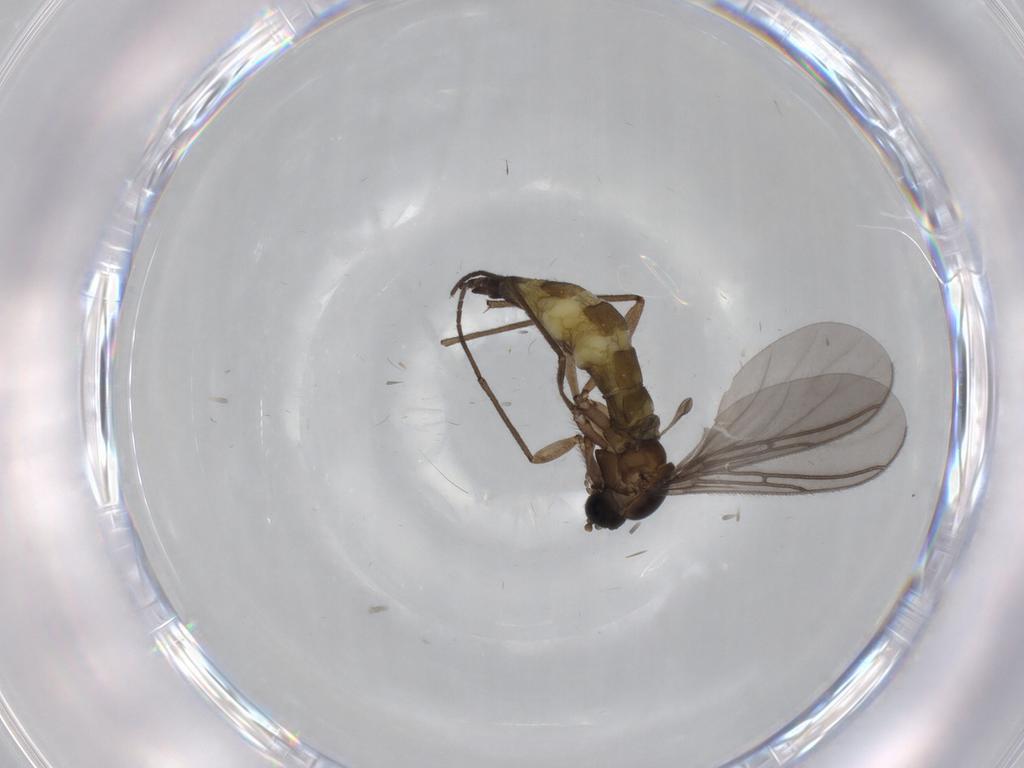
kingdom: Animalia
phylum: Arthropoda
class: Insecta
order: Diptera
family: Sciaridae
